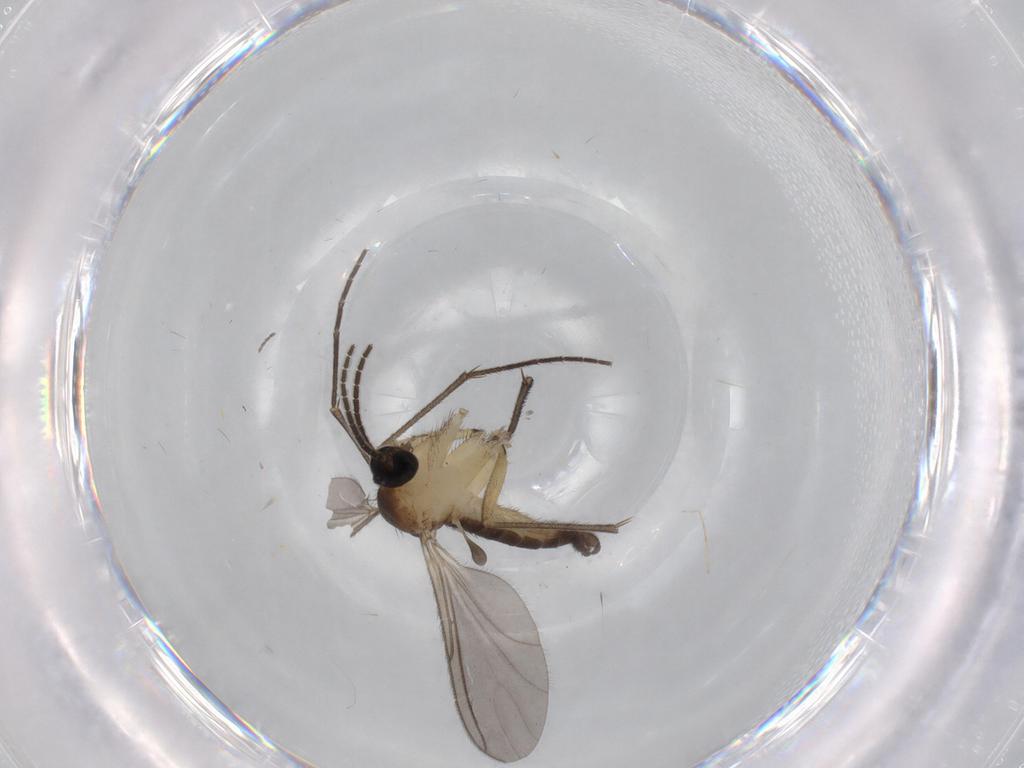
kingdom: Animalia
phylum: Arthropoda
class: Insecta
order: Diptera
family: Sciaridae
